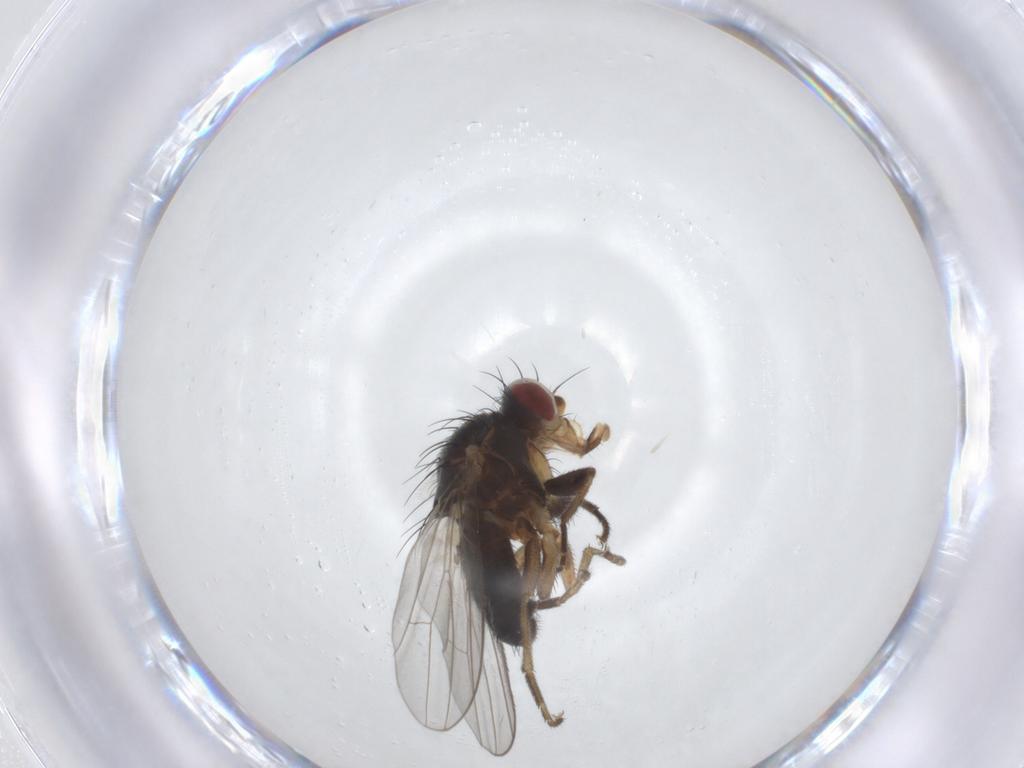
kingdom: Animalia
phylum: Arthropoda
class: Insecta
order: Diptera
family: Heleomyzidae
